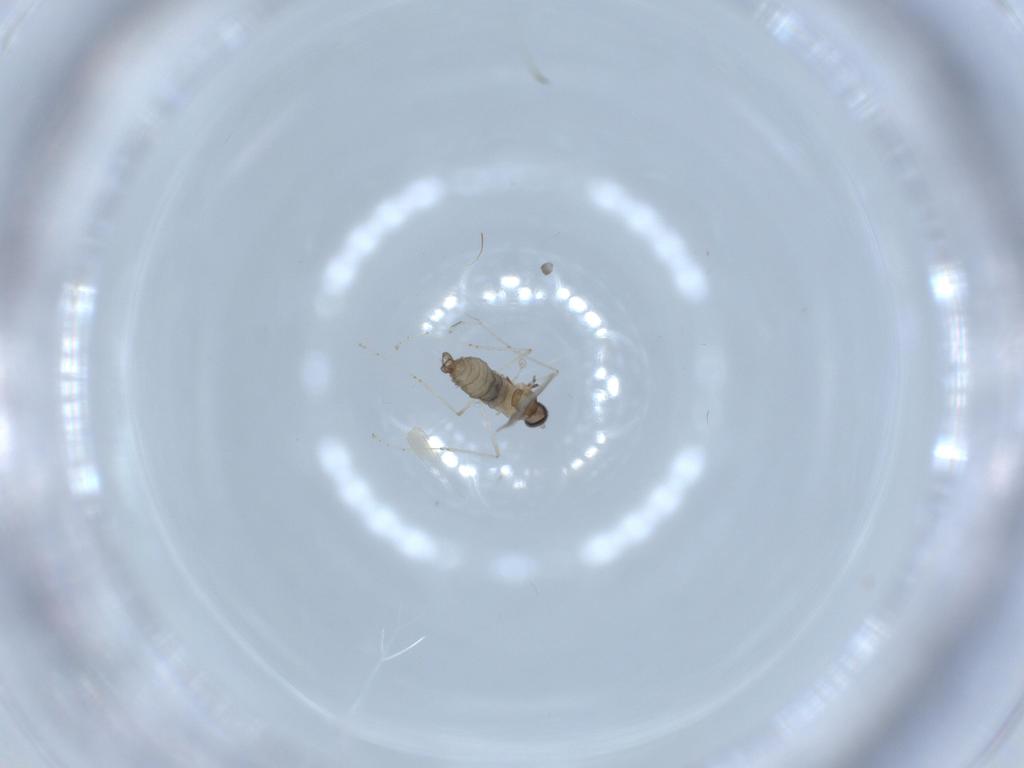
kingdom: Animalia
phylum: Arthropoda
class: Insecta
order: Diptera
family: Cecidomyiidae
